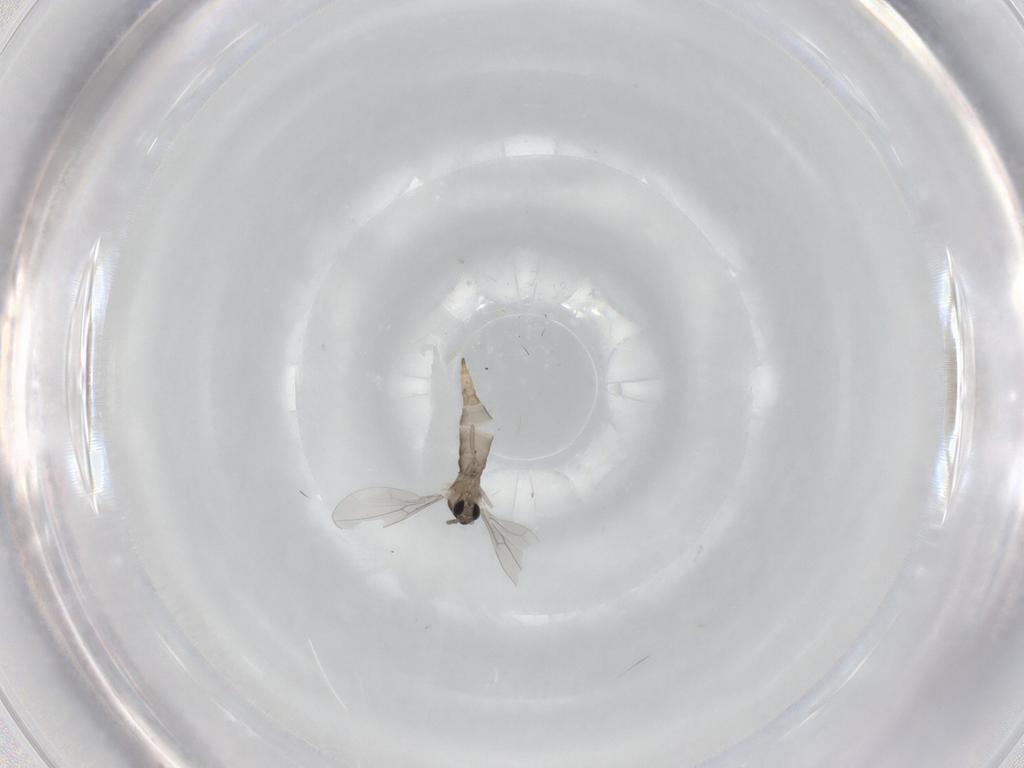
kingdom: Animalia
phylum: Arthropoda
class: Insecta
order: Diptera
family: Cecidomyiidae
